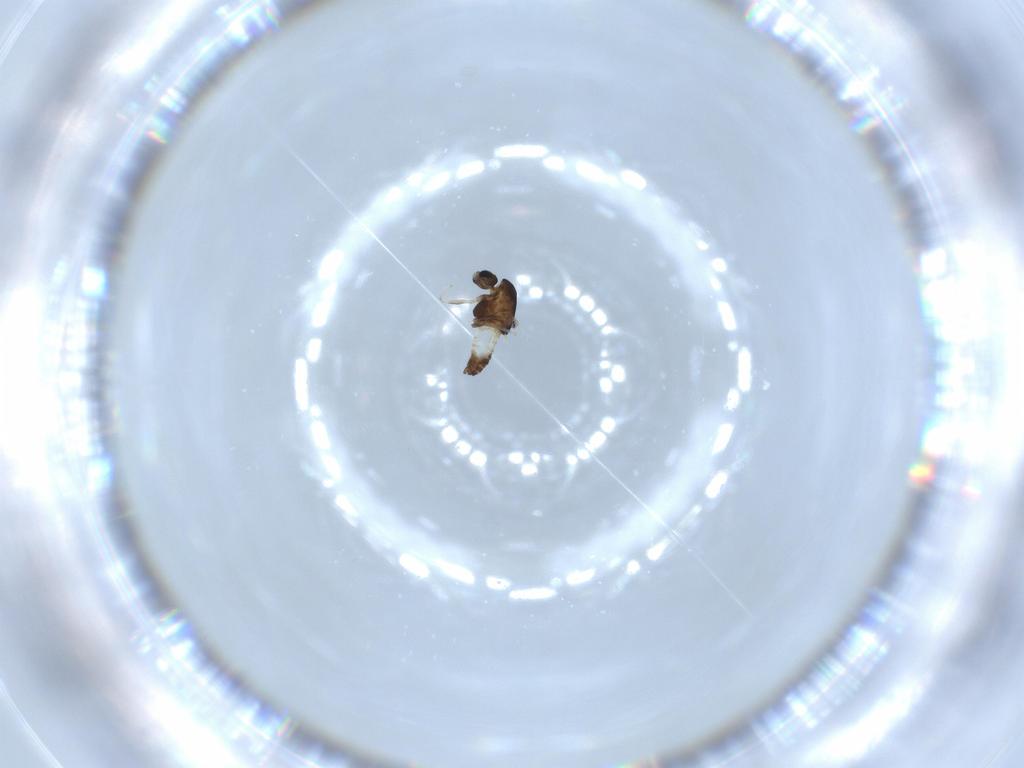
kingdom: Animalia
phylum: Arthropoda
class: Insecta
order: Diptera
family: Chironomidae
